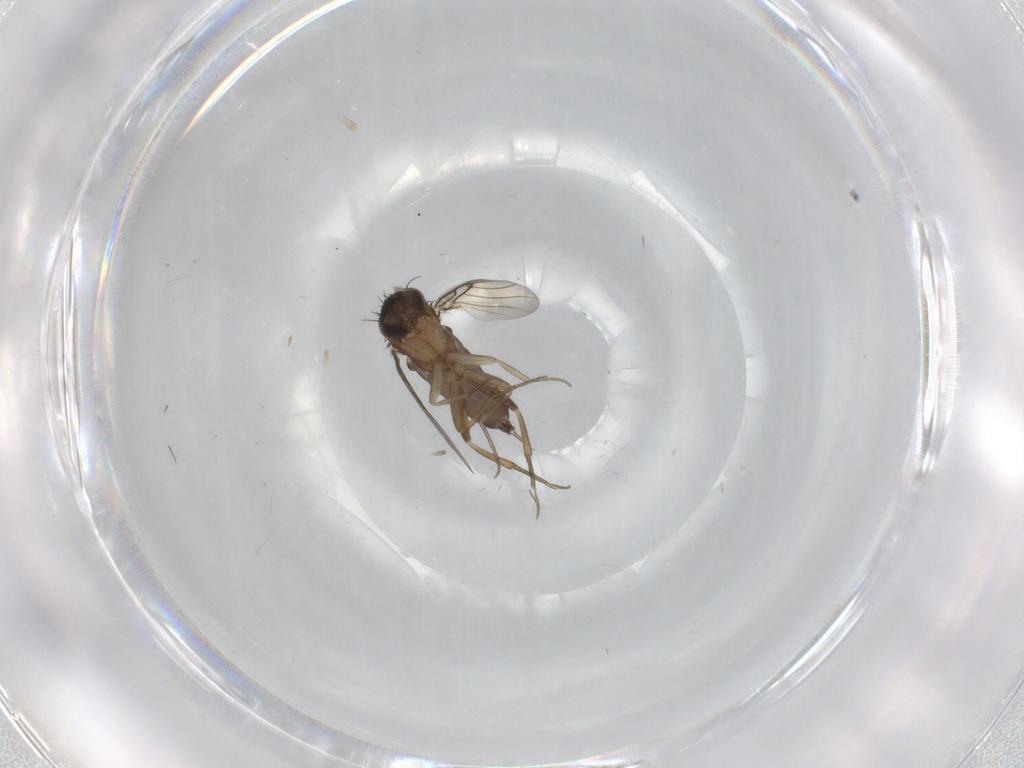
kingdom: Animalia
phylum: Arthropoda
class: Insecta
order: Diptera
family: Phoridae
